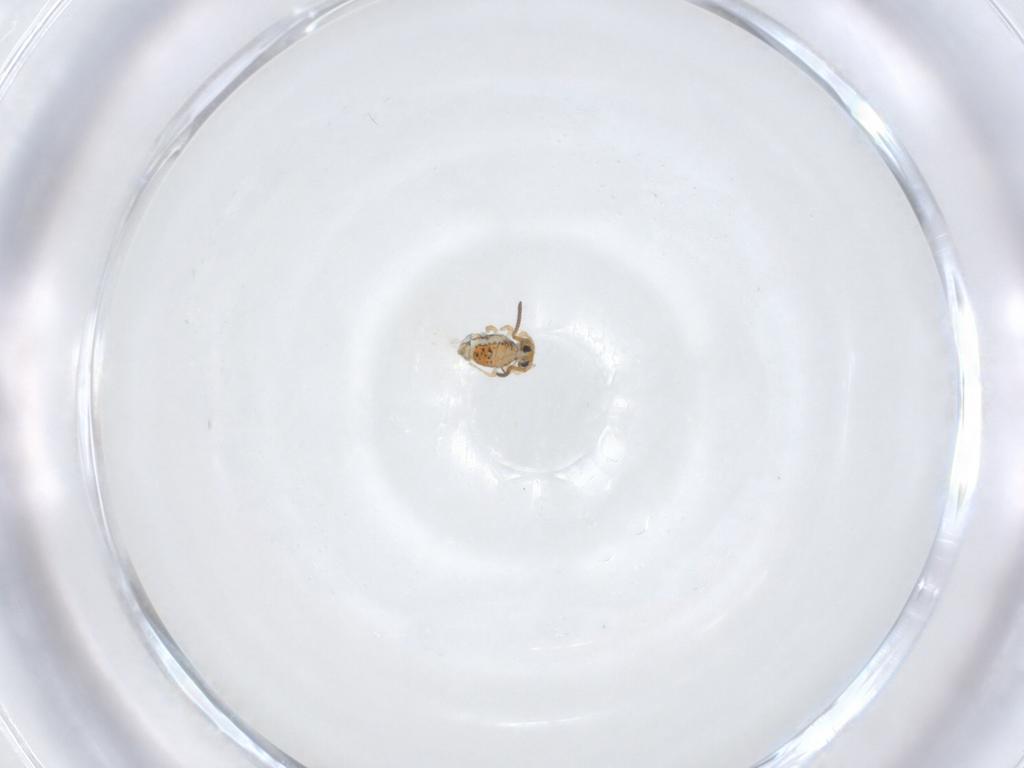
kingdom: Animalia
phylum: Arthropoda
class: Collembola
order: Symphypleona
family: Katiannidae
